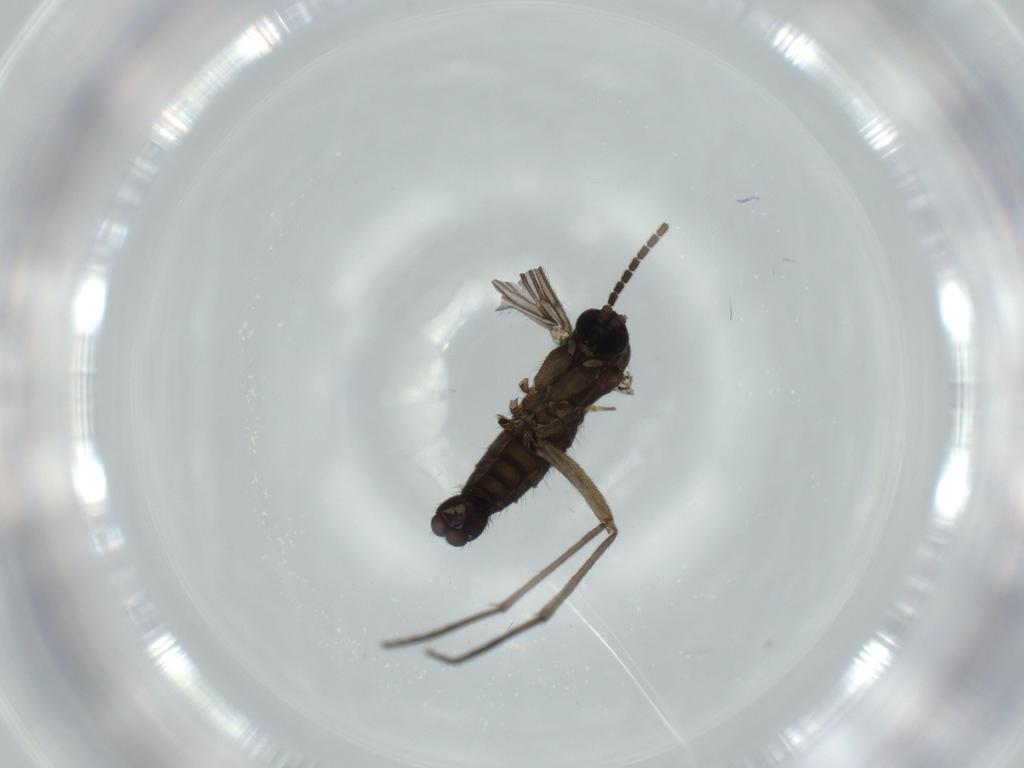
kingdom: Animalia
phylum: Arthropoda
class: Insecta
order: Diptera
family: Sciaridae
